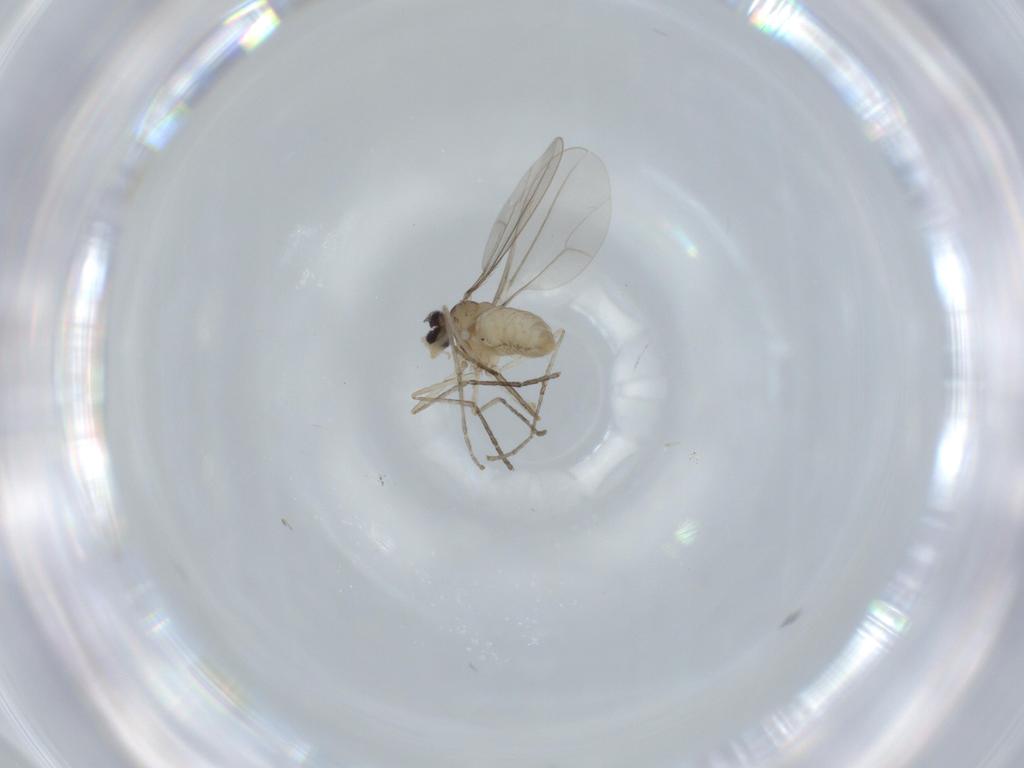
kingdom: Animalia
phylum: Arthropoda
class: Insecta
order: Diptera
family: Cecidomyiidae
